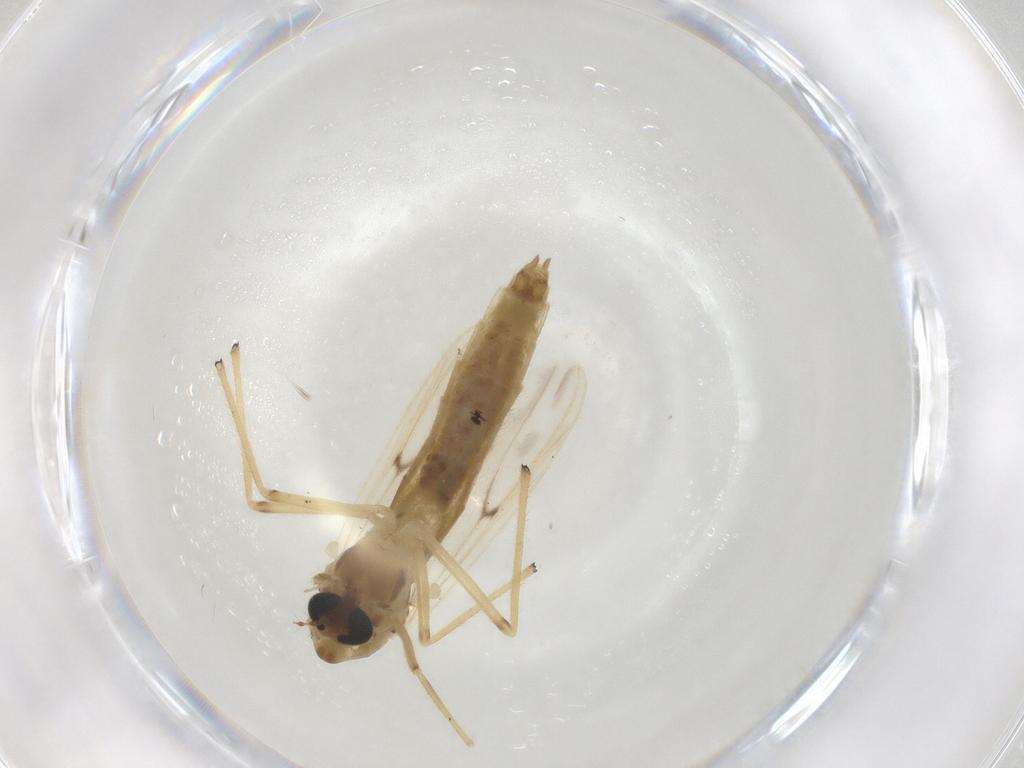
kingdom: Animalia
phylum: Arthropoda
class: Insecta
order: Diptera
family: Chironomidae
